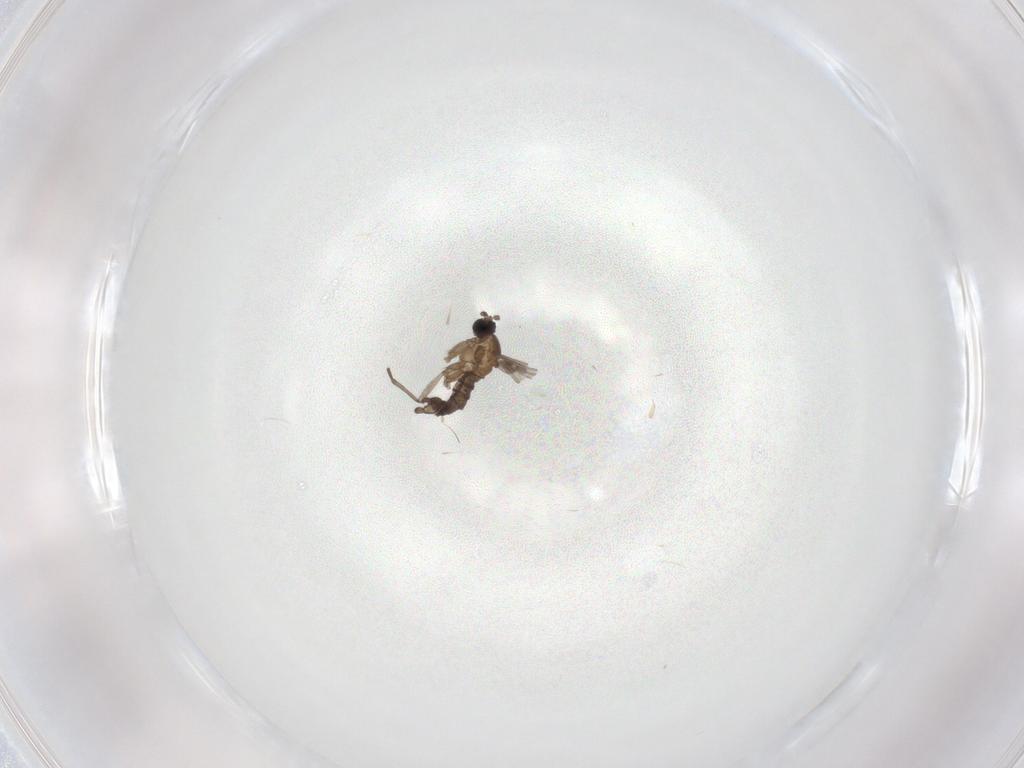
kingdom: Animalia
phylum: Arthropoda
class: Insecta
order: Diptera
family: Sciaridae
